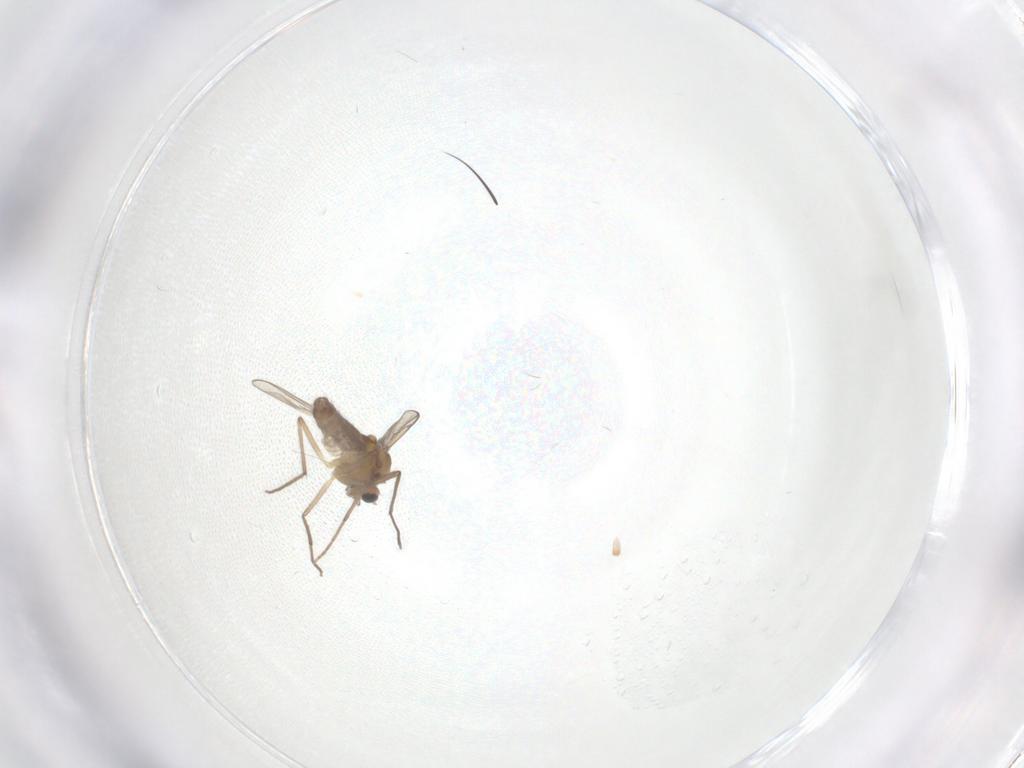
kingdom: Animalia
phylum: Arthropoda
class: Insecta
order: Diptera
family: Chironomidae
